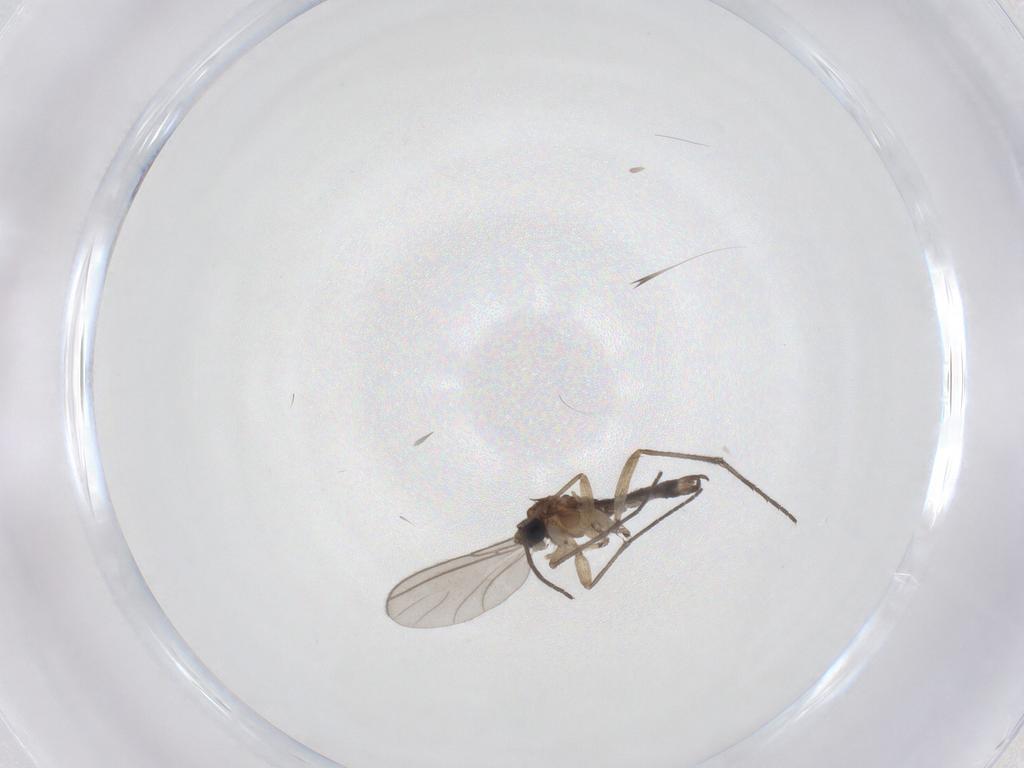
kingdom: Animalia
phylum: Arthropoda
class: Insecta
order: Diptera
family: Sciaridae
